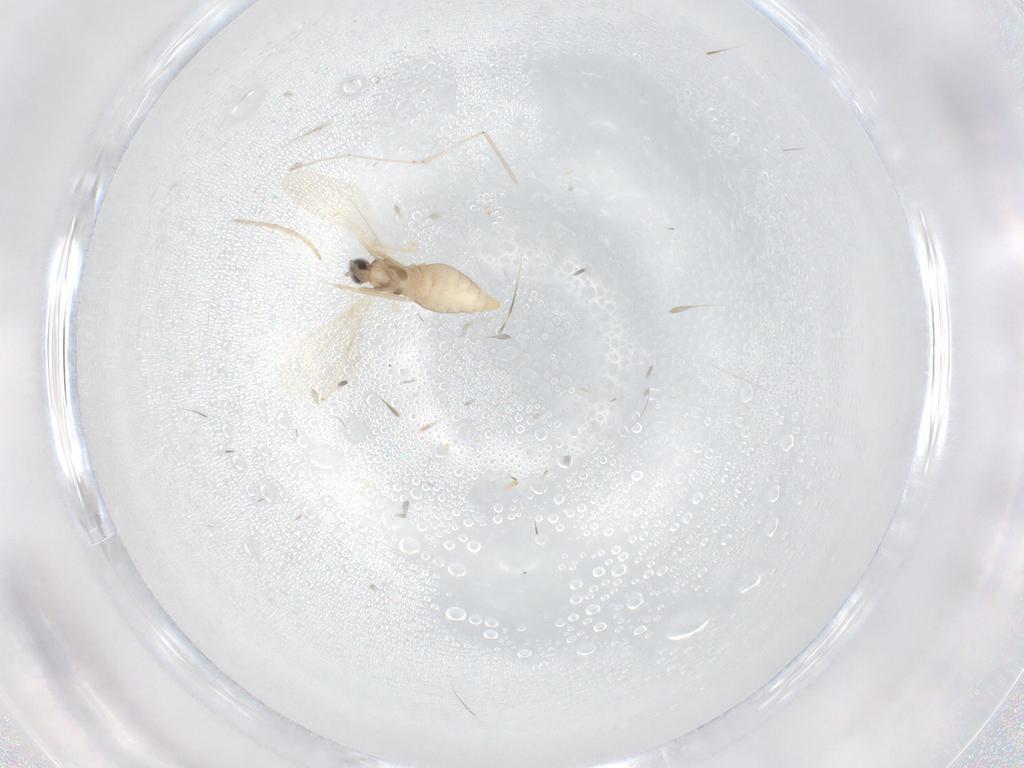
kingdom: Animalia
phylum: Arthropoda
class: Insecta
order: Diptera
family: Cecidomyiidae
